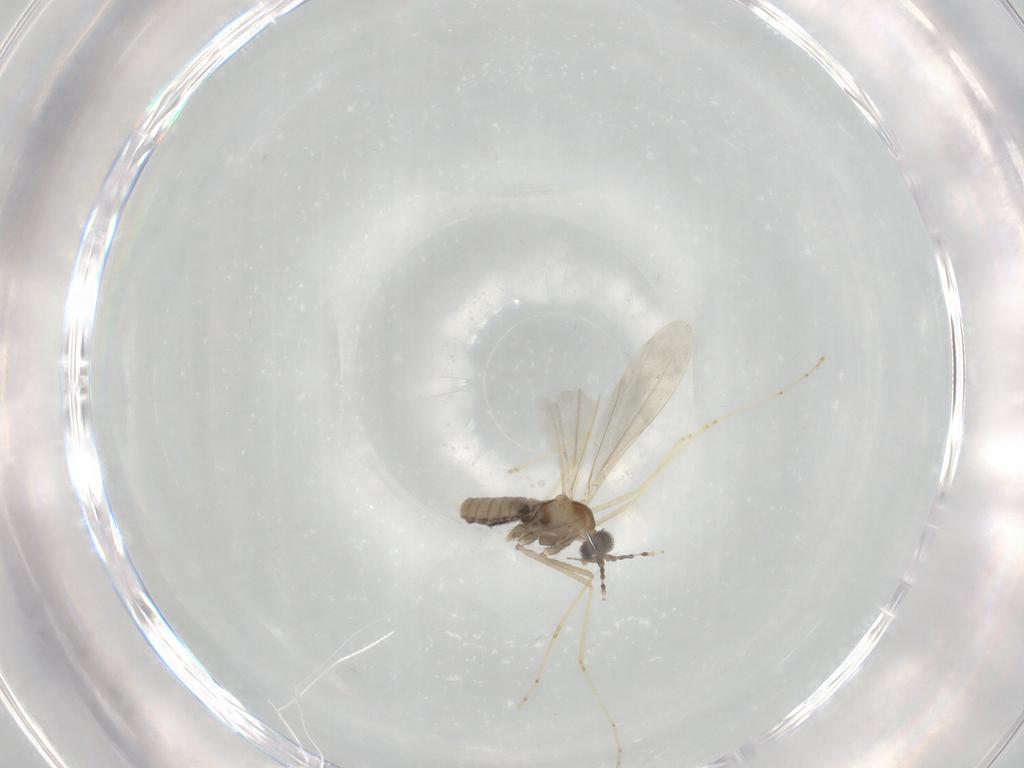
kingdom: Animalia
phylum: Arthropoda
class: Insecta
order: Diptera
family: Cecidomyiidae
